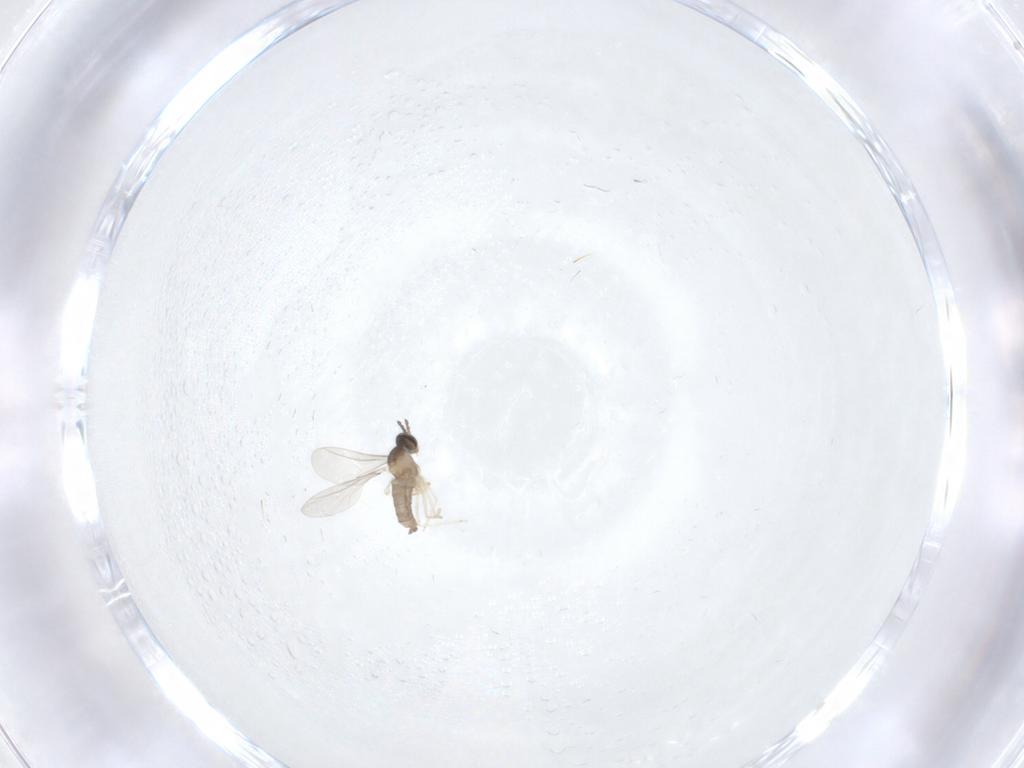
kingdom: Animalia
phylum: Arthropoda
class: Insecta
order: Diptera
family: Cecidomyiidae
